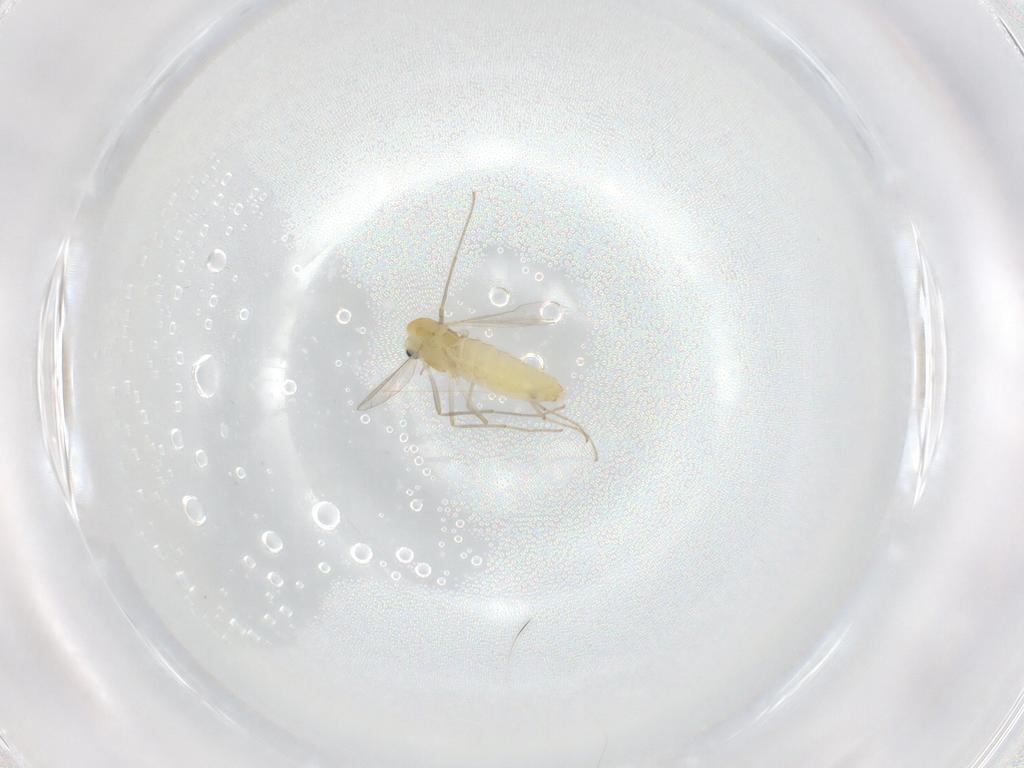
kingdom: Animalia
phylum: Arthropoda
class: Insecta
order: Diptera
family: Chironomidae
